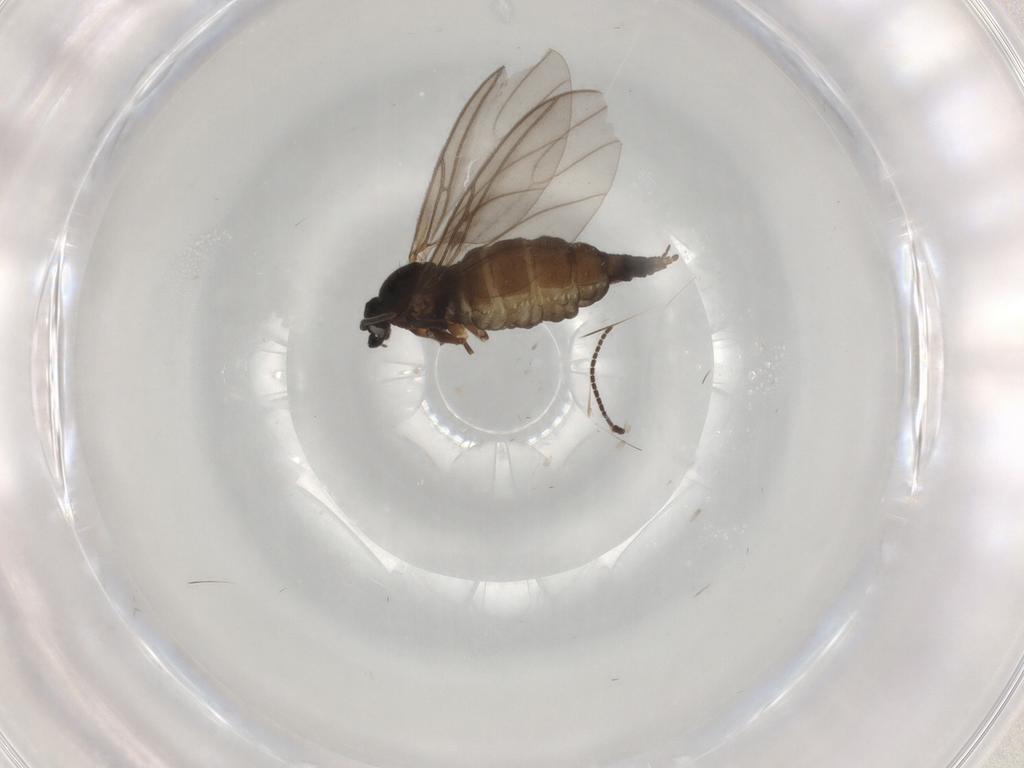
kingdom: Animalia
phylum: Arthropoda
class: Insecta
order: Diptera
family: Sciaridae
